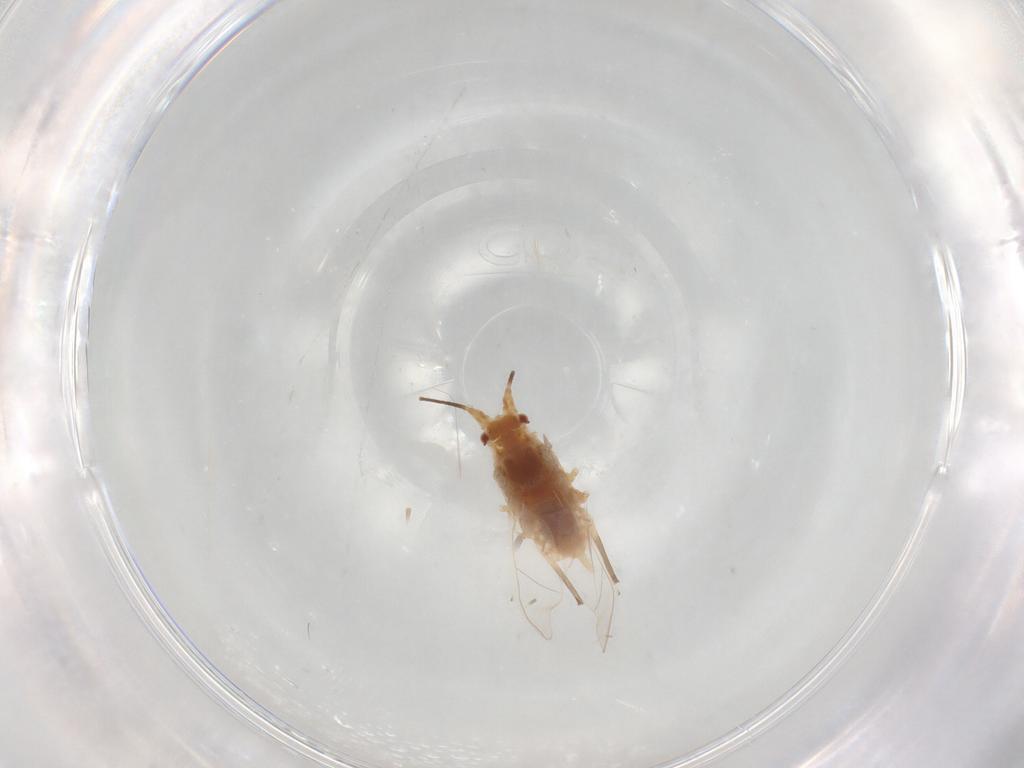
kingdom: Animalia
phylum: Arthropoda
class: Insecta
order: Hemiptera
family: Aphididae
